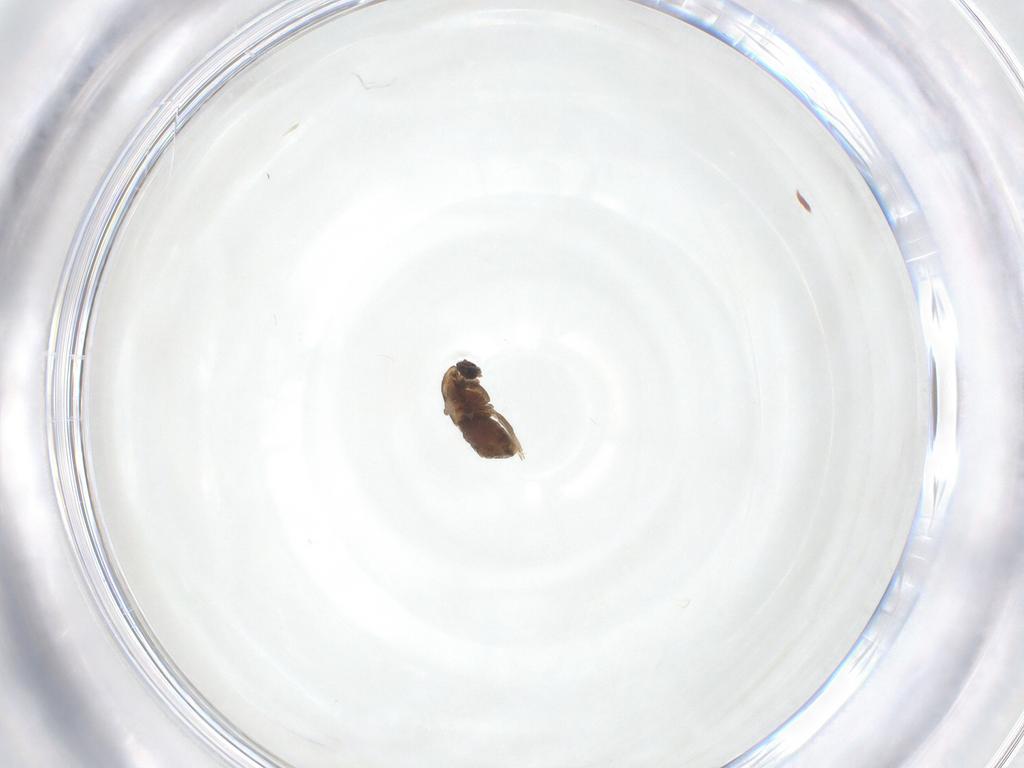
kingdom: Animalia
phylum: Arthropoda
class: Insecta
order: Diptera
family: Chironomidae
